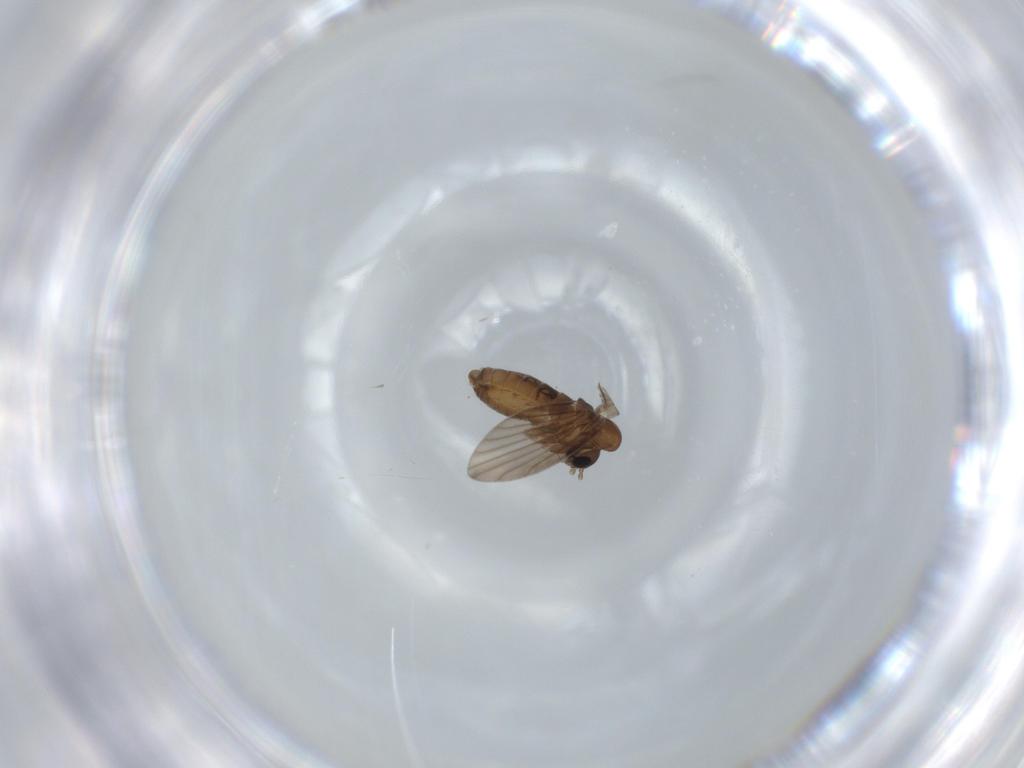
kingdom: Animalia
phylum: Arthropoda
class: Insecta
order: Diptera
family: Psychodidae
